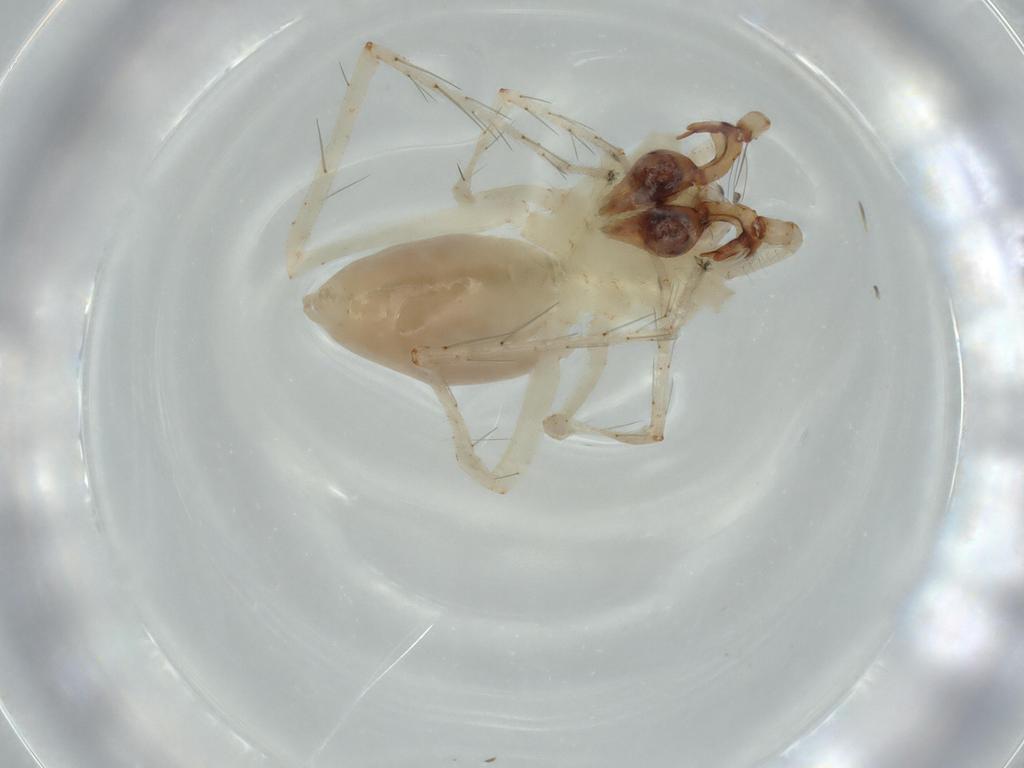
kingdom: Animalia
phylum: Arthropoda
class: Arachnida
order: Araneae
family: Anyphaenidae
